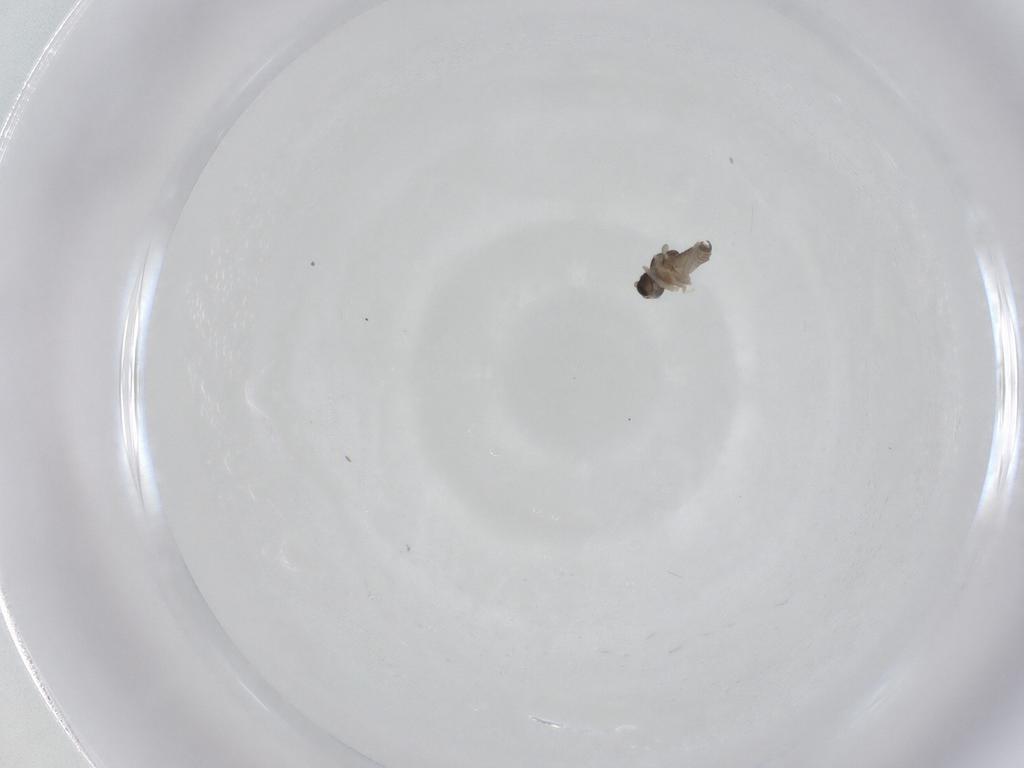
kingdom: Animalia
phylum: Arthropoda
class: Insecta
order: Diptera
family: Cecidomyiidae
